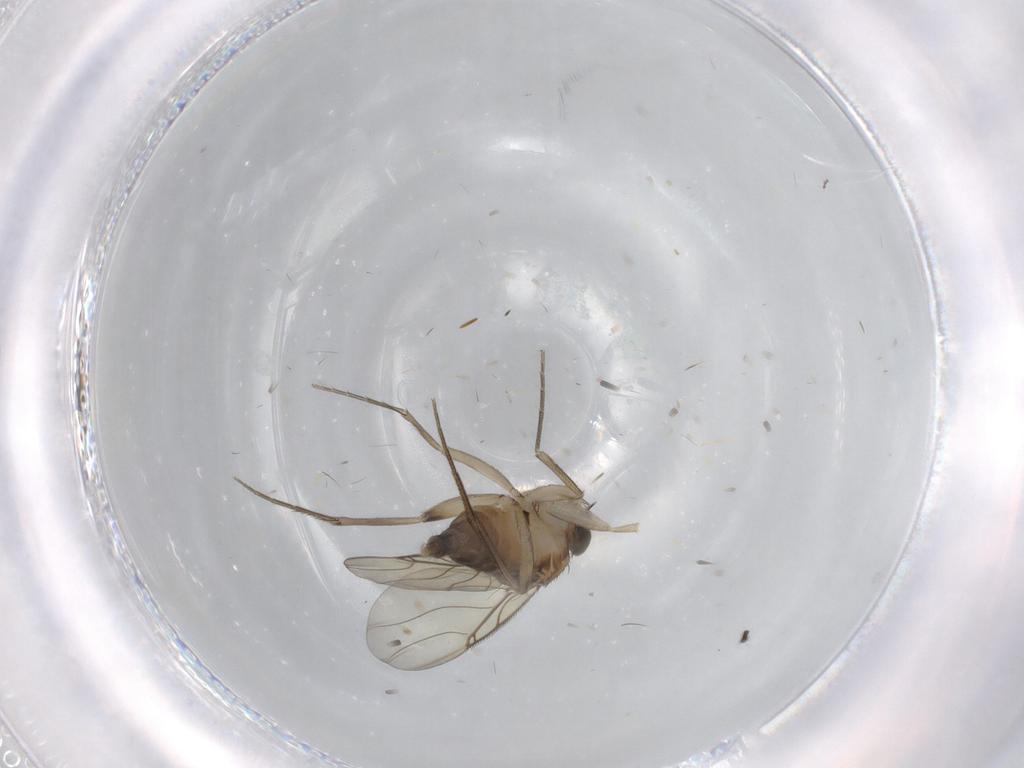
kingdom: Animalia
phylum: Arthropoda
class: Insecta
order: Diptera
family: Phoridae
